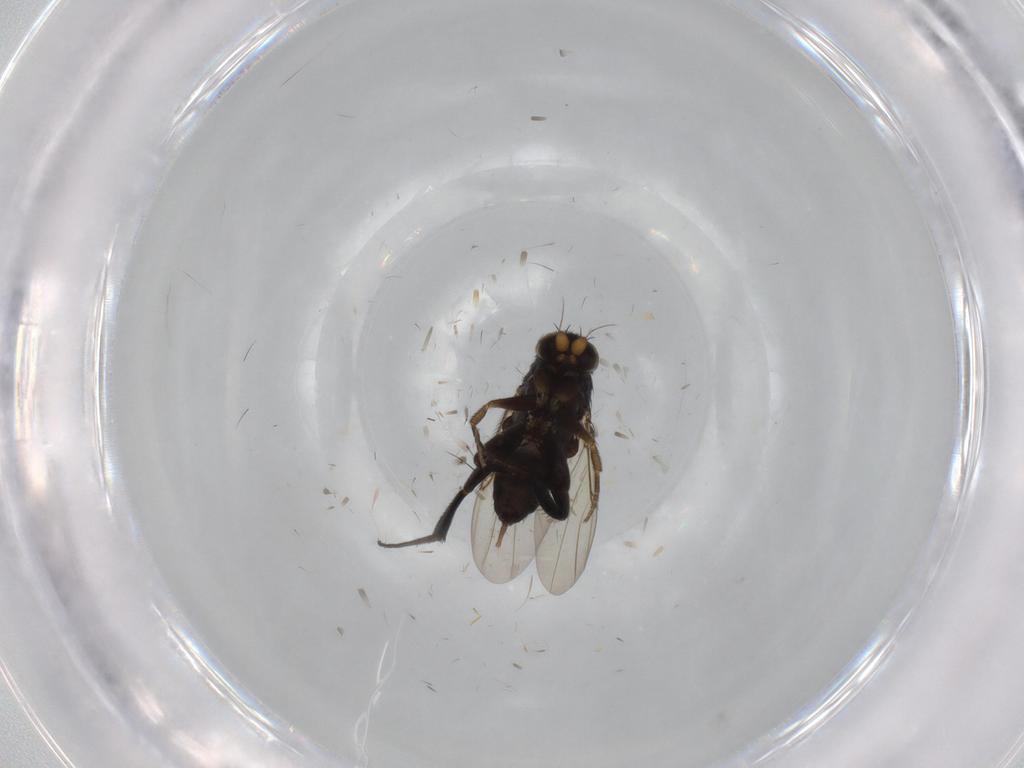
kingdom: Animalia
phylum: Arthropoda
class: Insecta
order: Diptera
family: Phoridae
